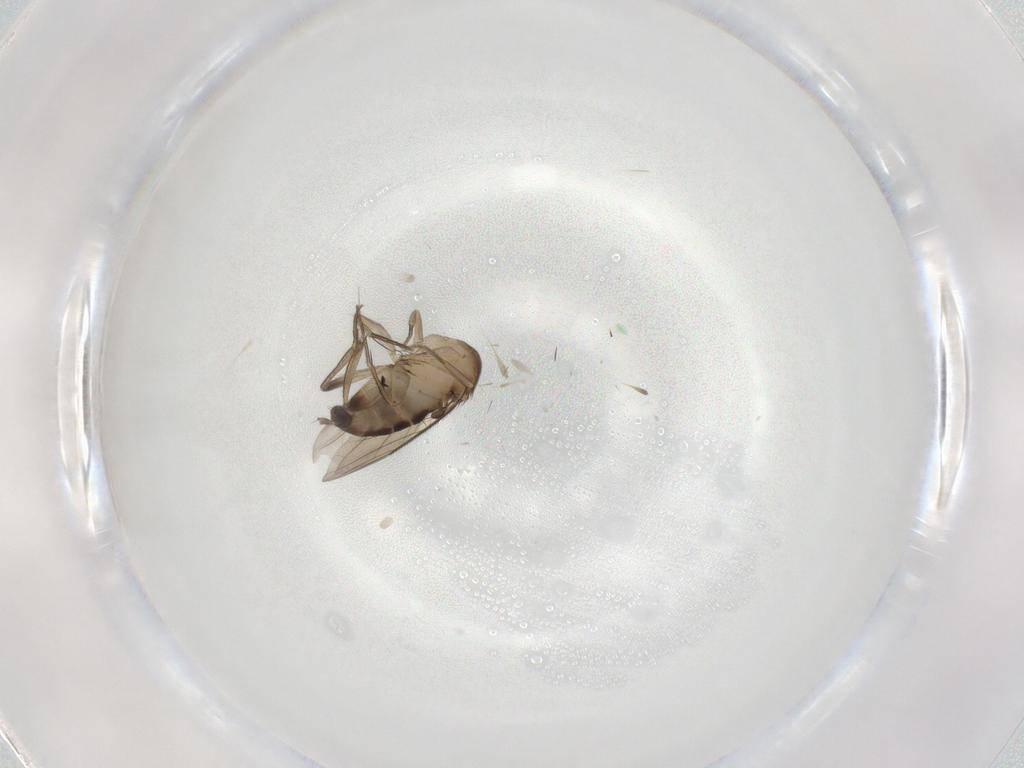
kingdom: Animalia
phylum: Arthropoda
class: Insecta
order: Diptera
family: Phoridae
